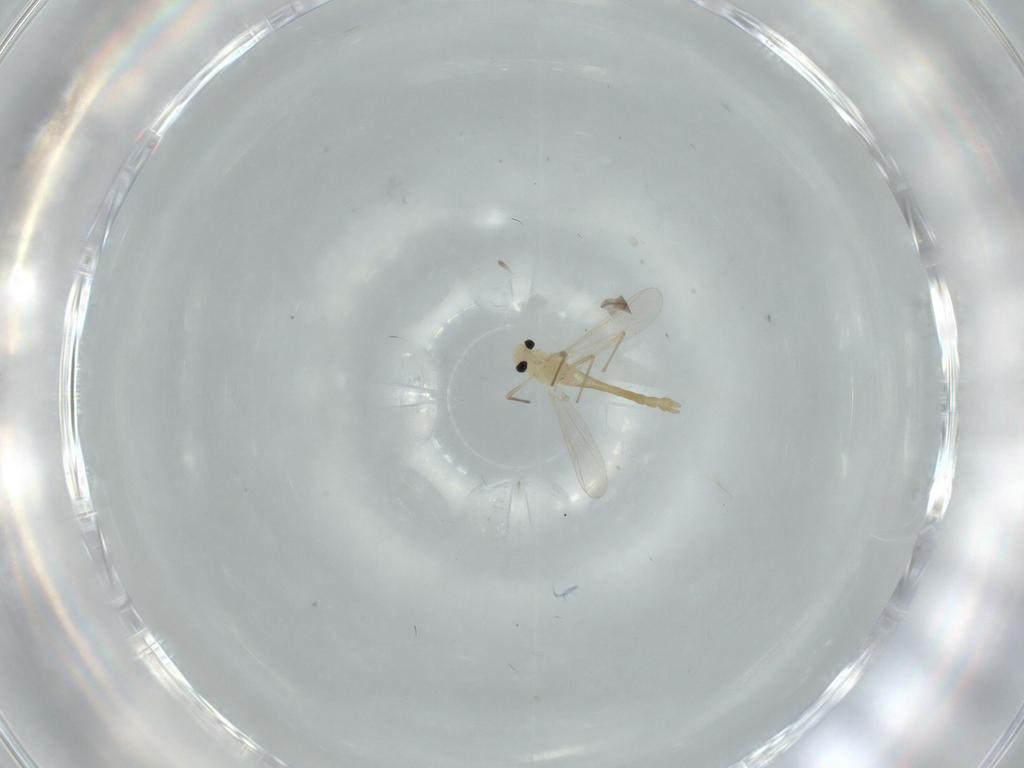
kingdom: Animalia
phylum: Arthropoda
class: Insecta
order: Diptera
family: Chironomidae
